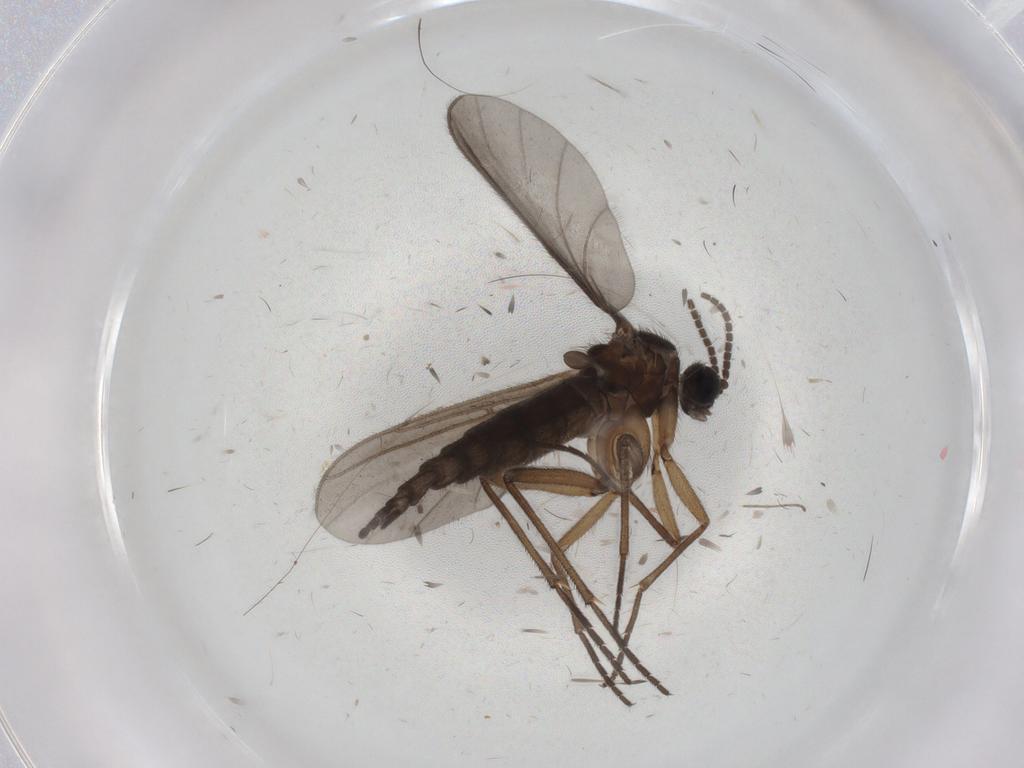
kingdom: Animalia
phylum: Arthropoda
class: Insecta
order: Diptera
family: Sciaridae
